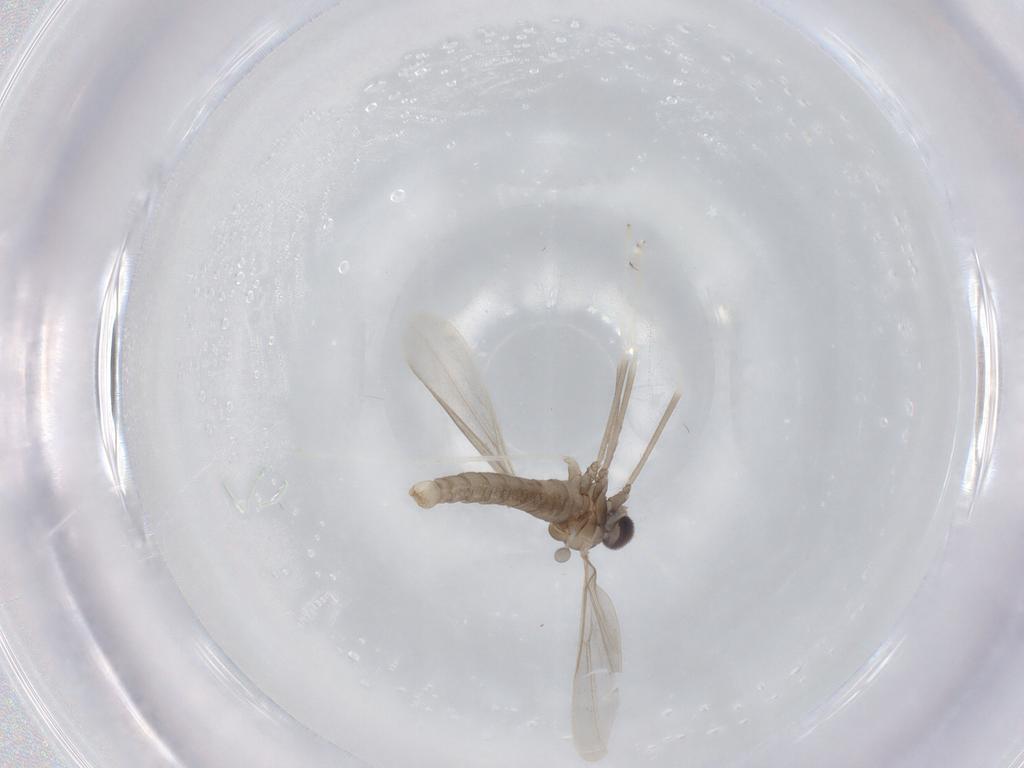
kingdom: Animalia
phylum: Arthropoda
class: Insecta
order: Diptera
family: Cecidomyiidae
